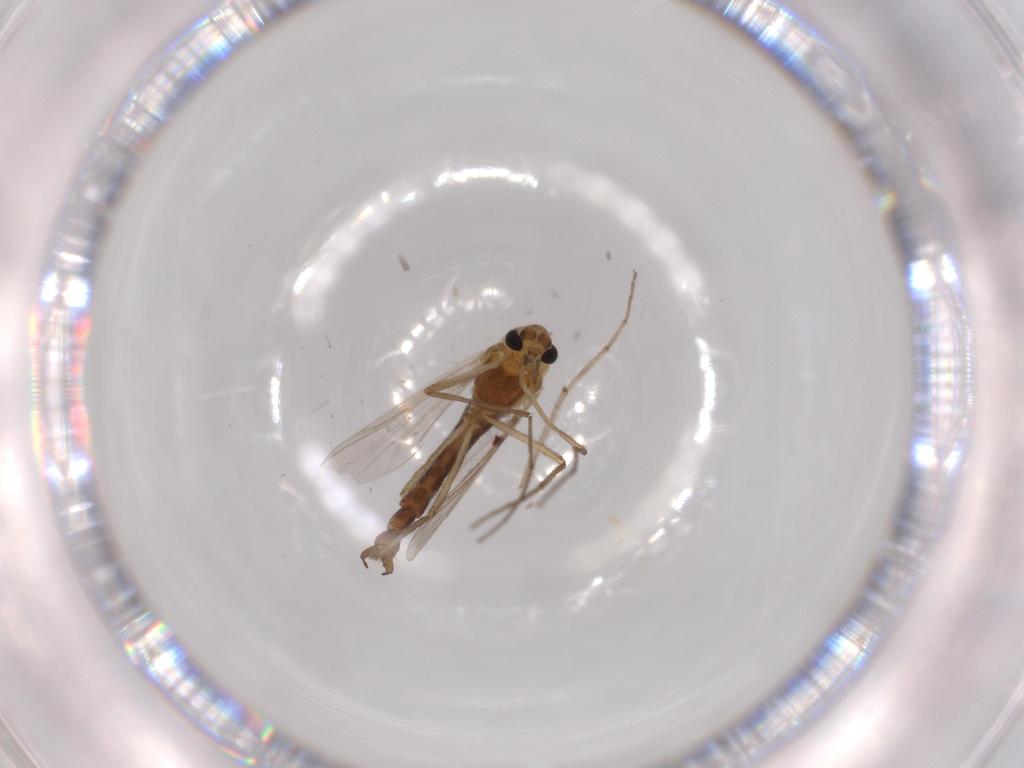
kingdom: Animalia
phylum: Arthropoda
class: Insecta
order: Diptera
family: Chironomidae
